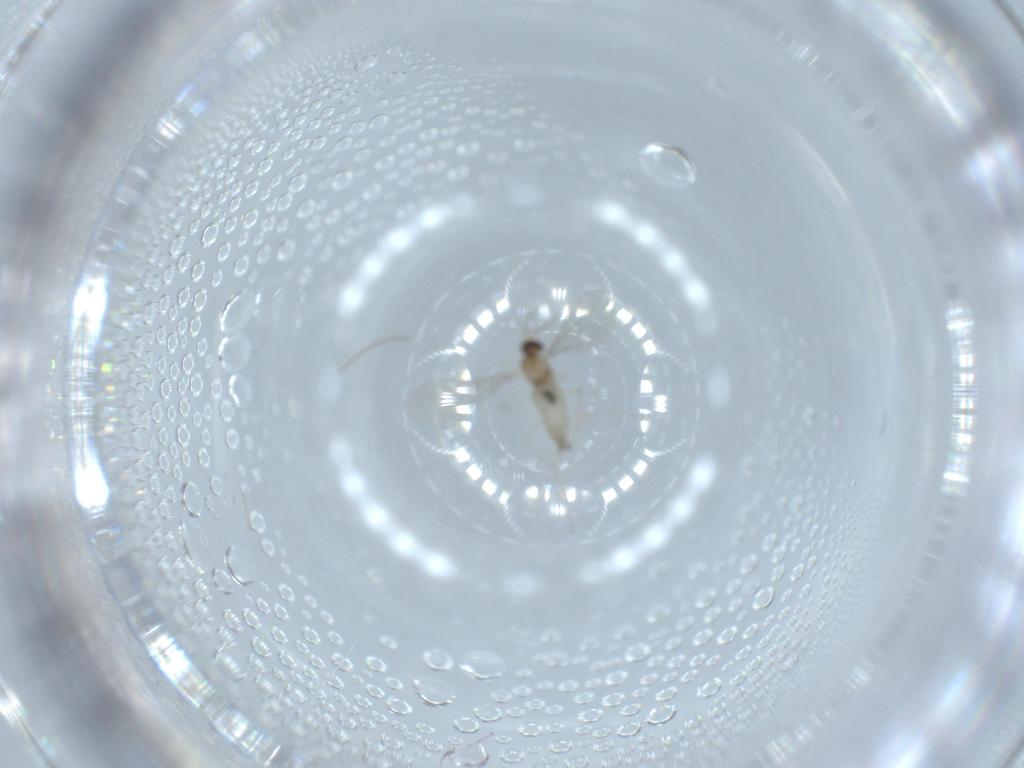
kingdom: Animalia
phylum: Arthropoda
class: Insecta
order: Diptera
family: Chironomidae
